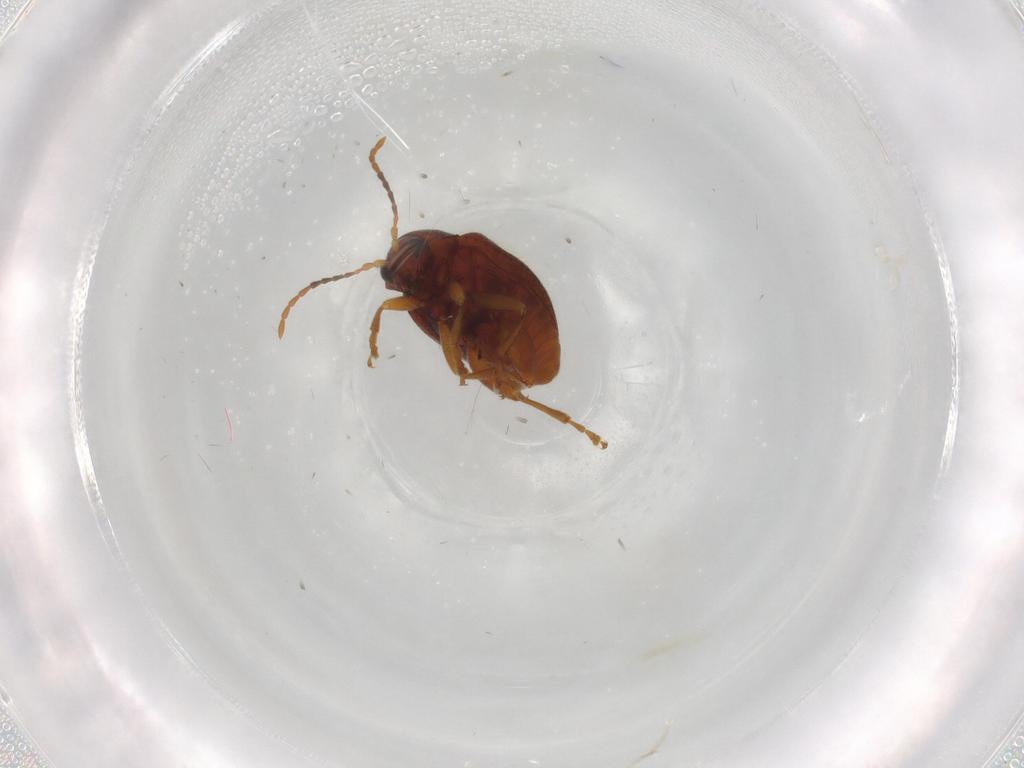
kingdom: Animalia
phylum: Arthropoda
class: Insecta
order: Coleoptera
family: Chrysomelidae
